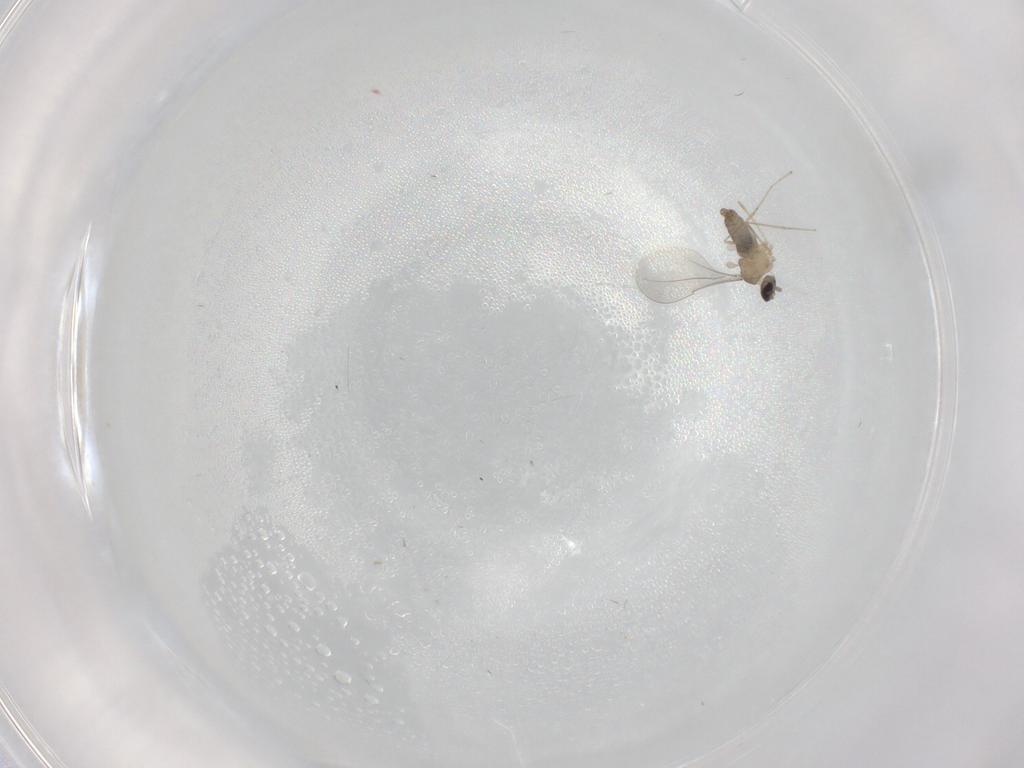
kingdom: Animalia
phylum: Arthropoda
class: Insecta
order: Diptera
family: Cecidomyiidae
